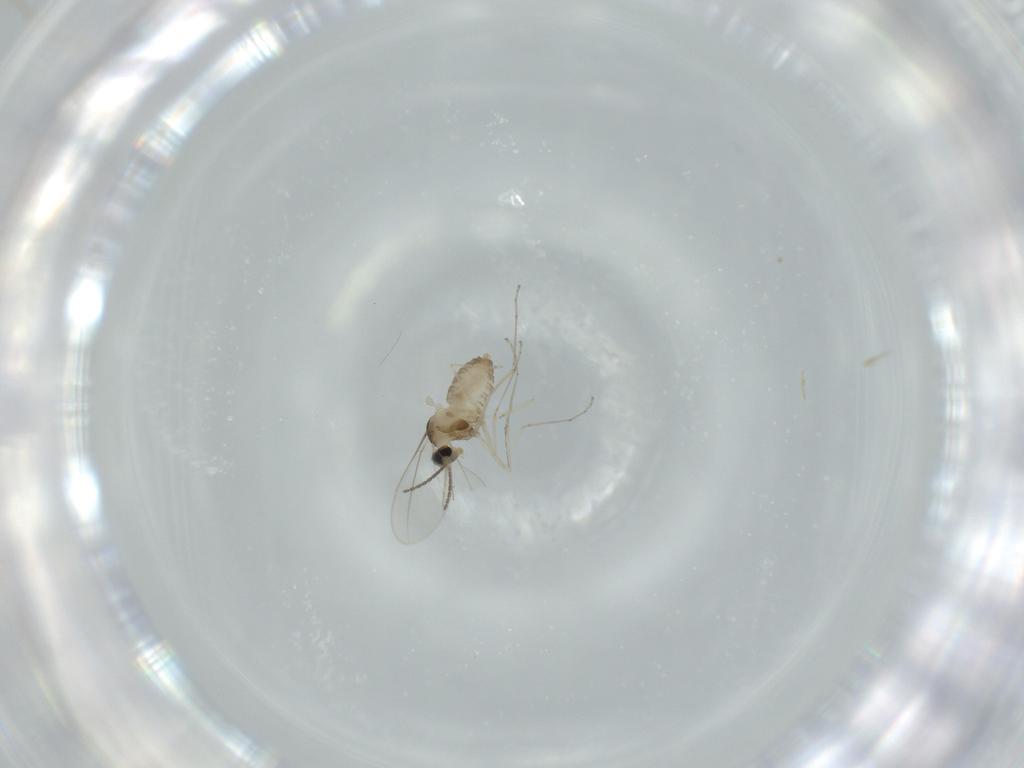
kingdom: Animalia
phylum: Arthropoda
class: Insecta
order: Diptera
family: Cecidomyiidae
